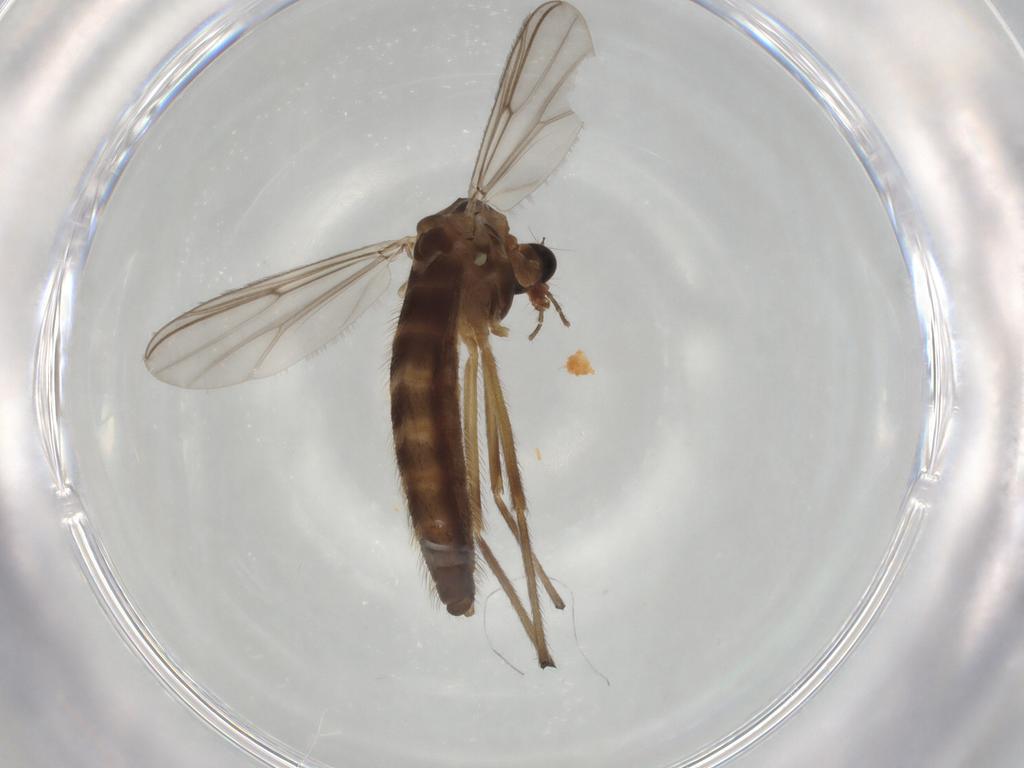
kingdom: Animalia
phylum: Arthropoda
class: Insecta
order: Diptera
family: Chironomidae
